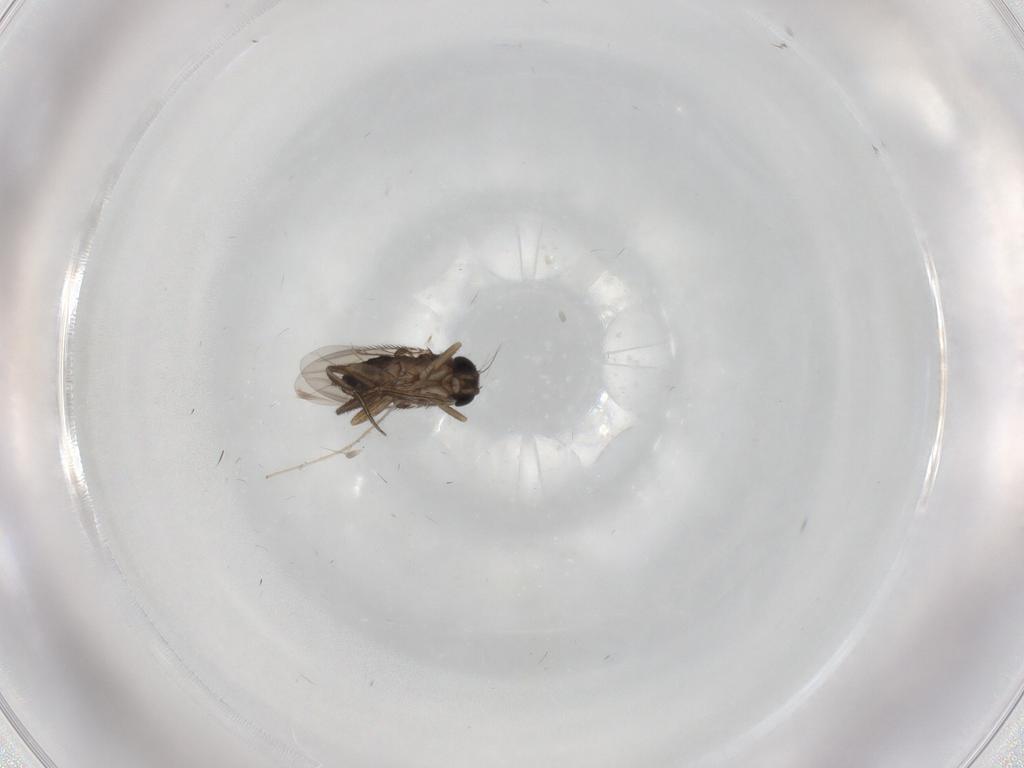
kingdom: Animalia
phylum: Arthropoda
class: Insecta
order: Diptera
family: Phoridae
